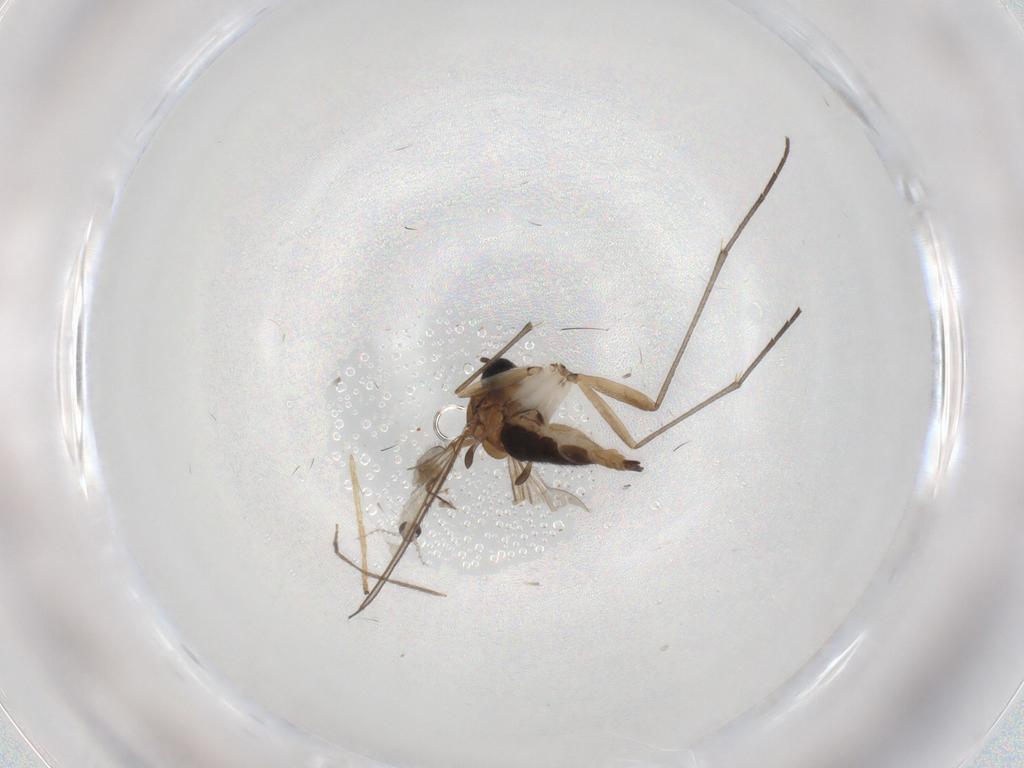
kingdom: Animalia
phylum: Arthropoda
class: Insecta
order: Diptera
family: Sciaridae
